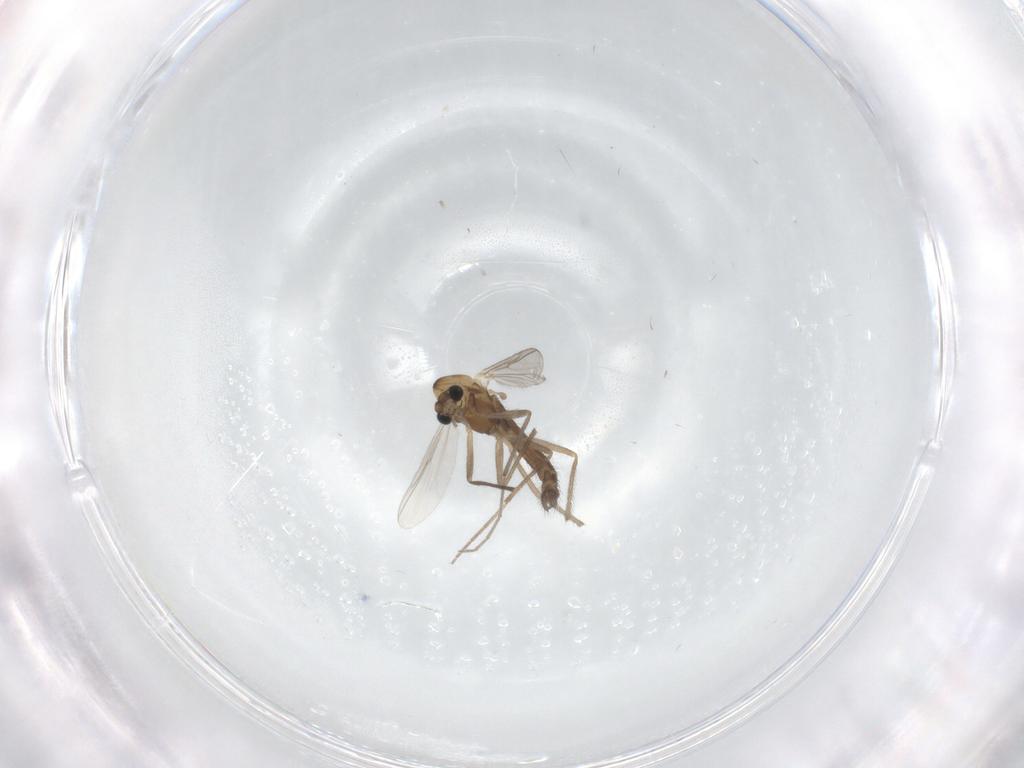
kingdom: Animalia
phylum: Arthropoda
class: Insecta
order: Diptera
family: Chironomidae
